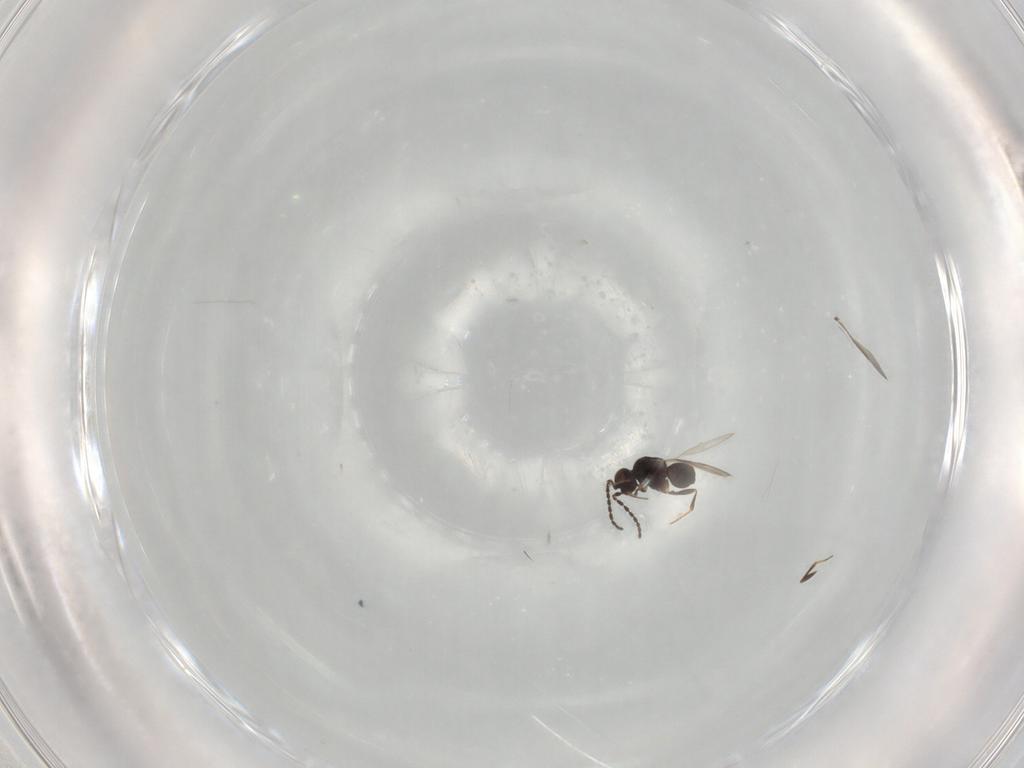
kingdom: Animalia
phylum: Arthropoda
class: Insecta
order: Hymenoptera
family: Ceraphronidae
